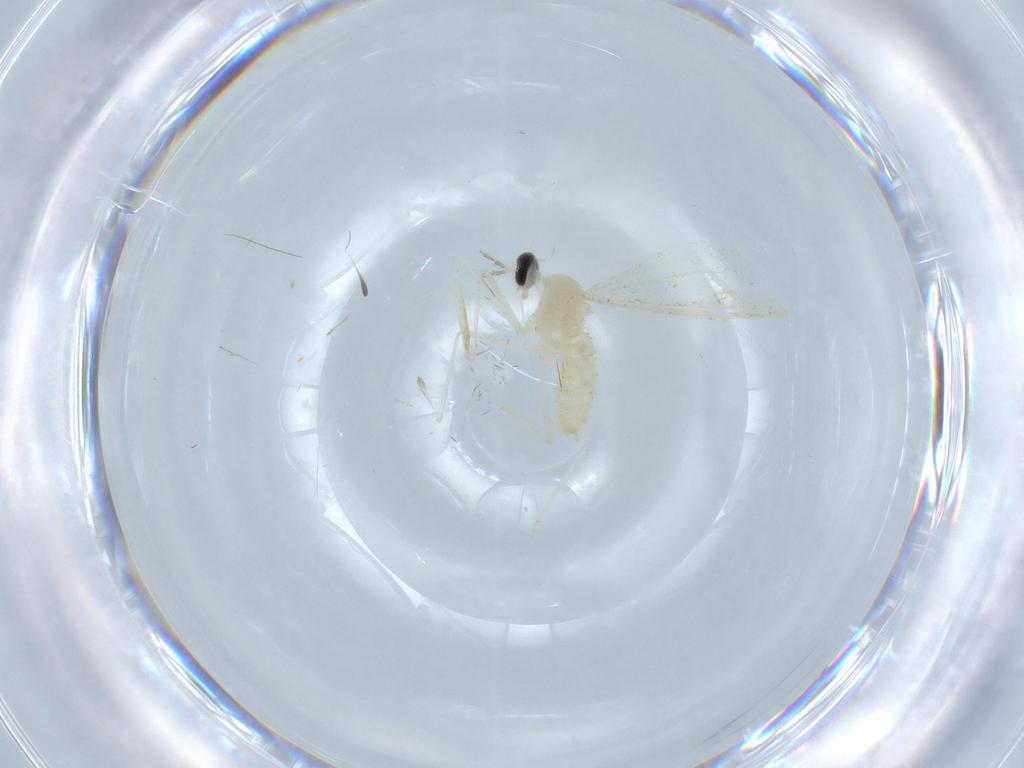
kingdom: Animalia
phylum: Arthropoda
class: Insecta
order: Diptera
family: Cecidomyiidae
